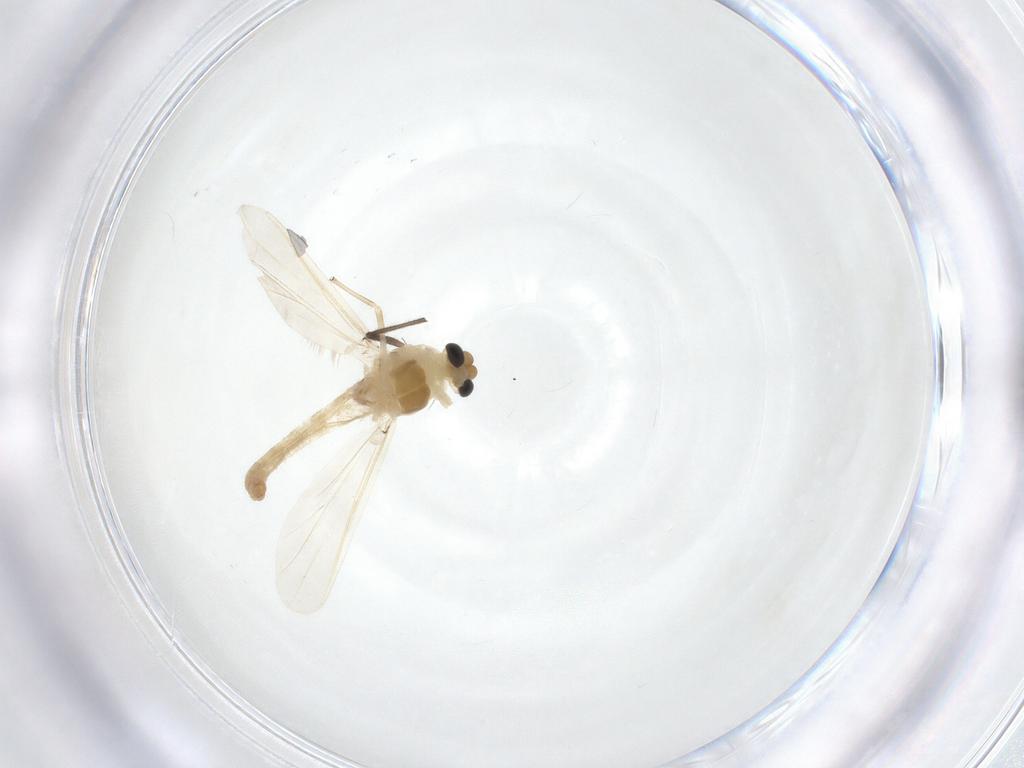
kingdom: Animalia
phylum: Arthropoda
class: Insecta
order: Diptera
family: Chironomidae
